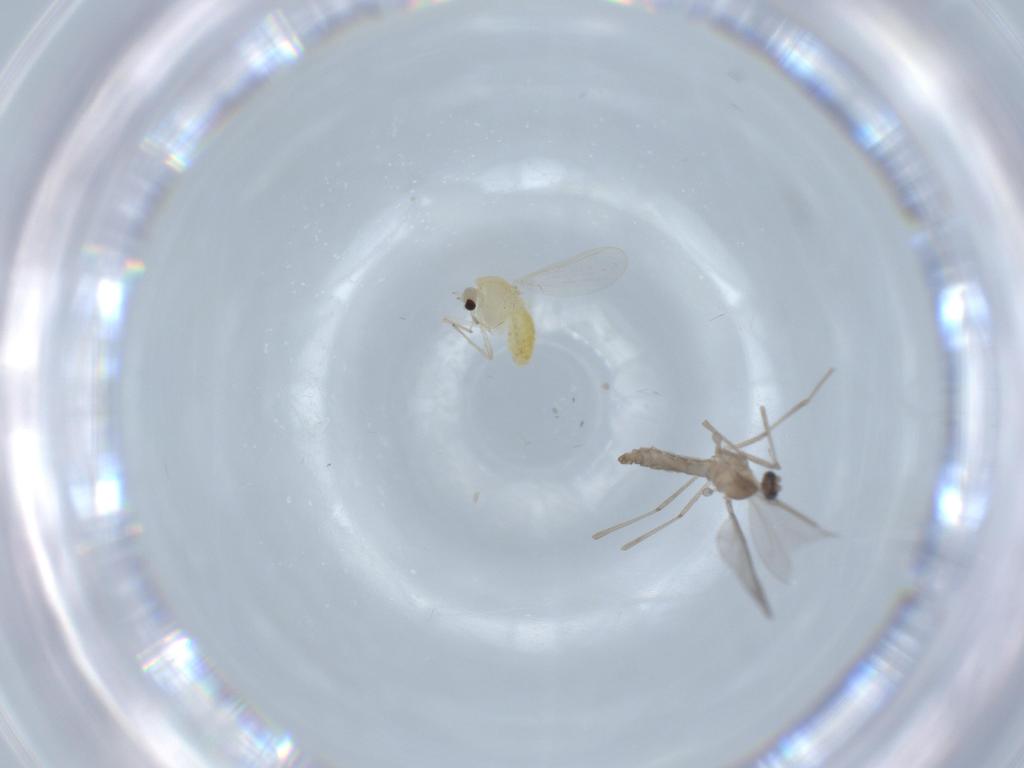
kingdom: Animalia
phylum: Arthropoda
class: Insecta
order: Diptera
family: Chironomidae
